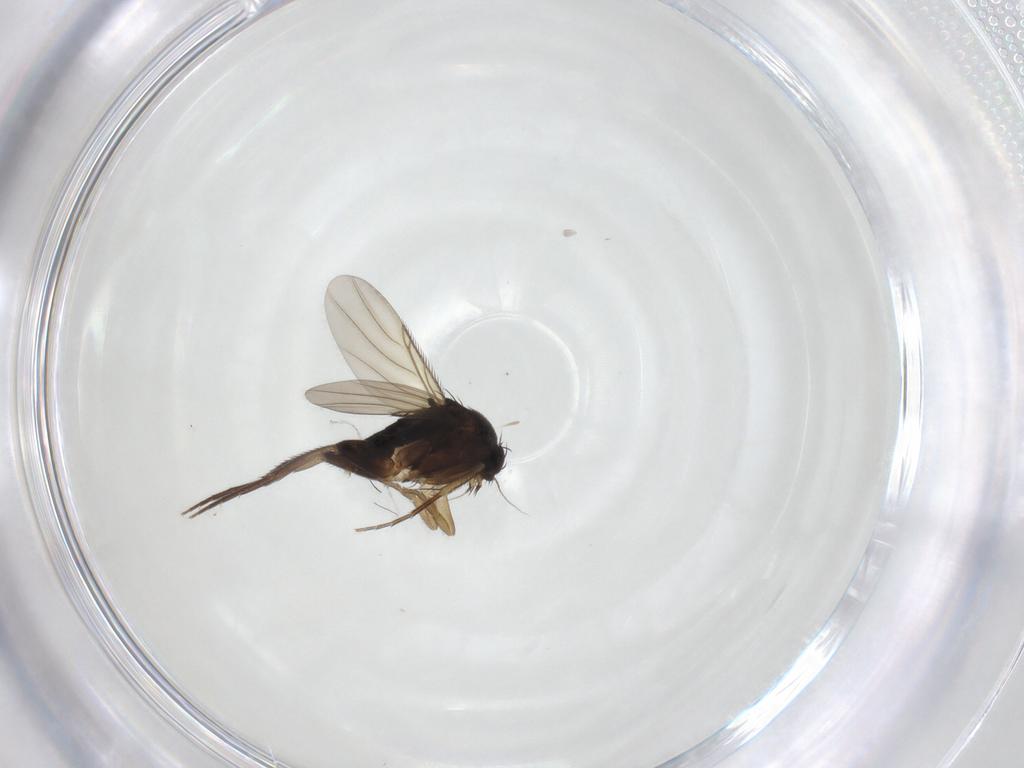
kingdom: Animalia
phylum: Arthropoda
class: Insecta
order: Diptera
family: Phoridae
